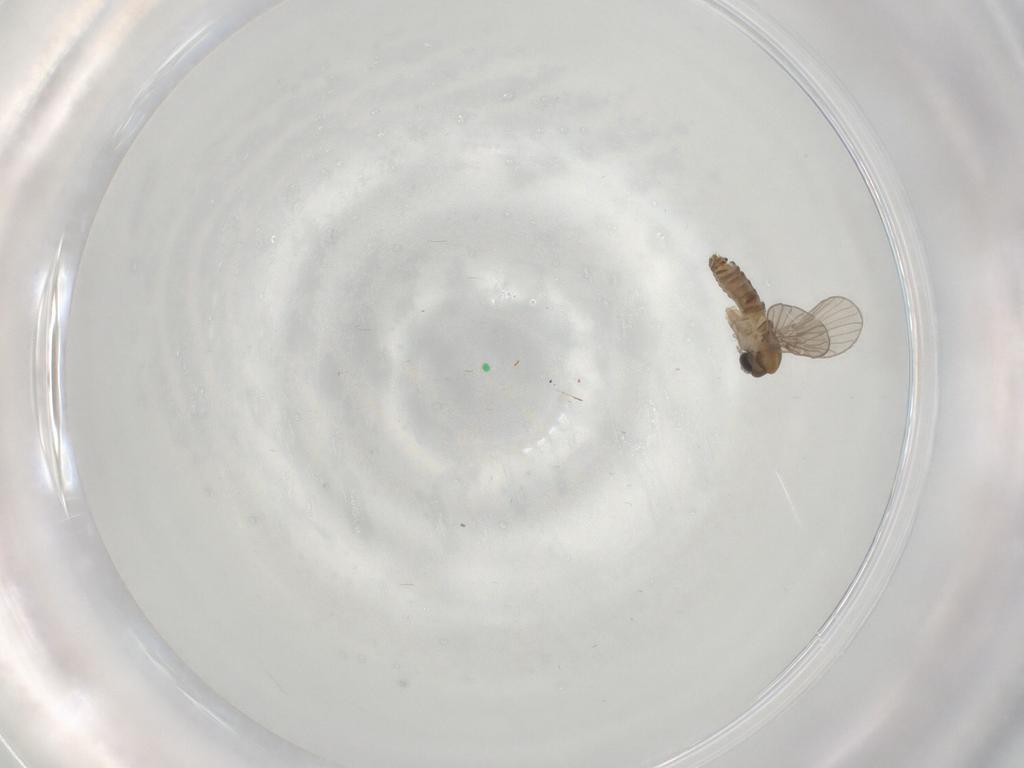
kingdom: Animalia
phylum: Arthropoda
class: Insecta
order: Diptera
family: Psychodidae
